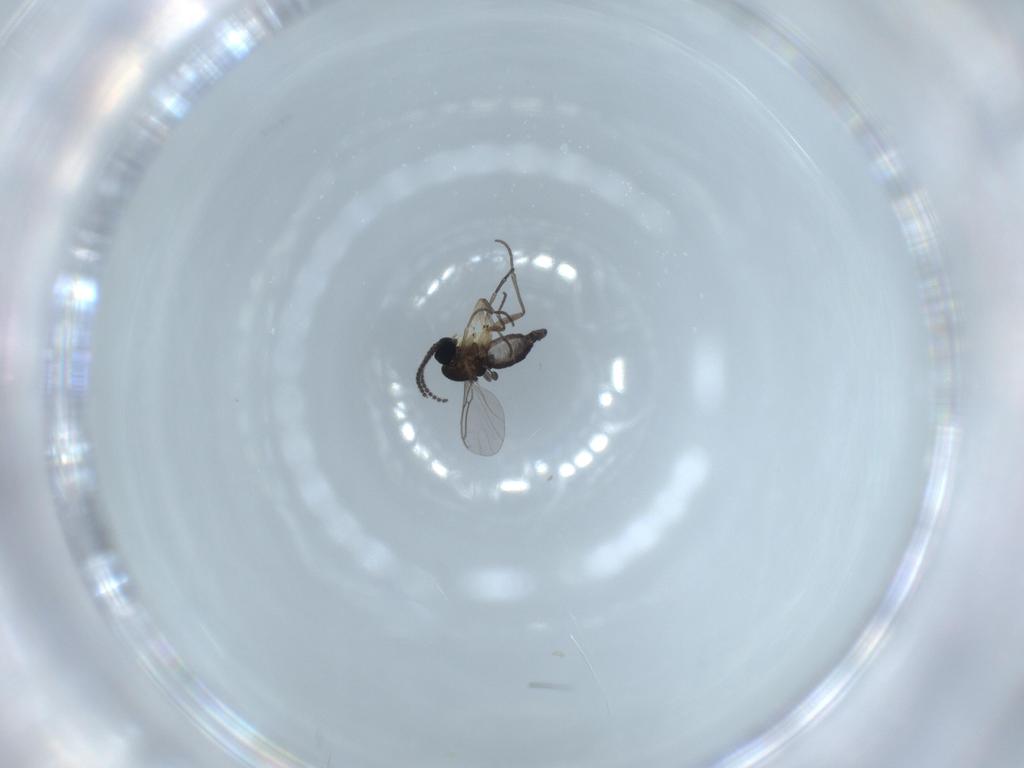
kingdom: Animalia
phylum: Arthropoda
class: Insecta
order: Diptera
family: Sciaridae
